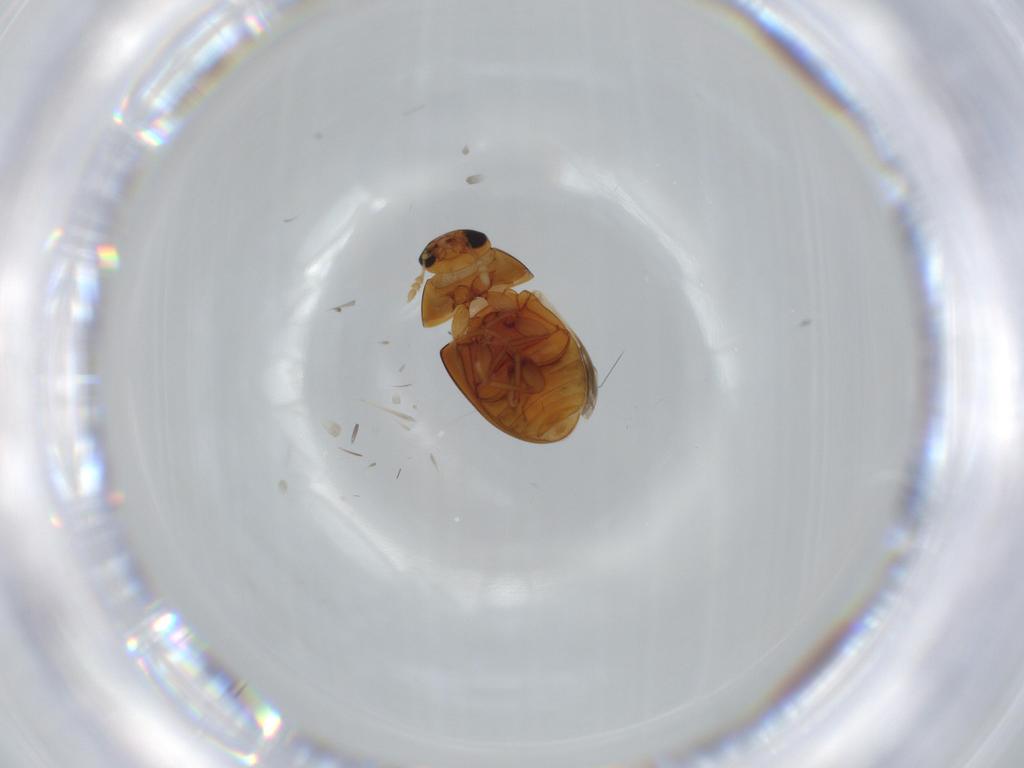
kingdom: Animalia
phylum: Arthropoda
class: Insecta
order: Coleoptera
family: Phalacridae
